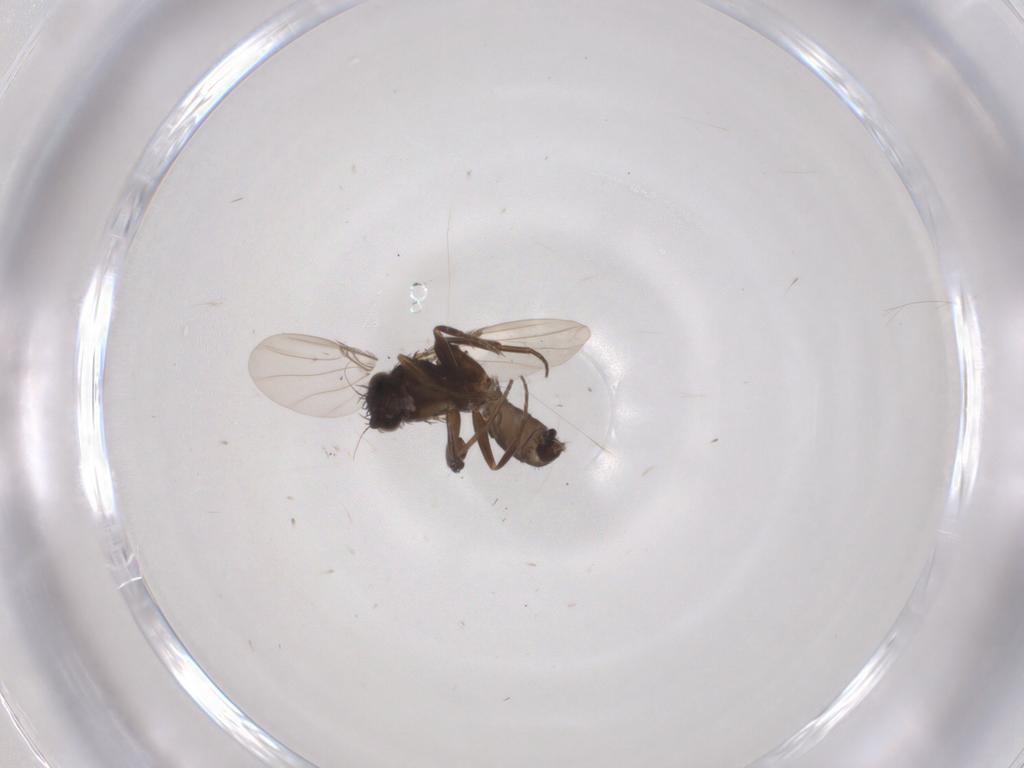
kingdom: Animalia
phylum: Arthropoda
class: Insecta
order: Diptera
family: Phoridae
